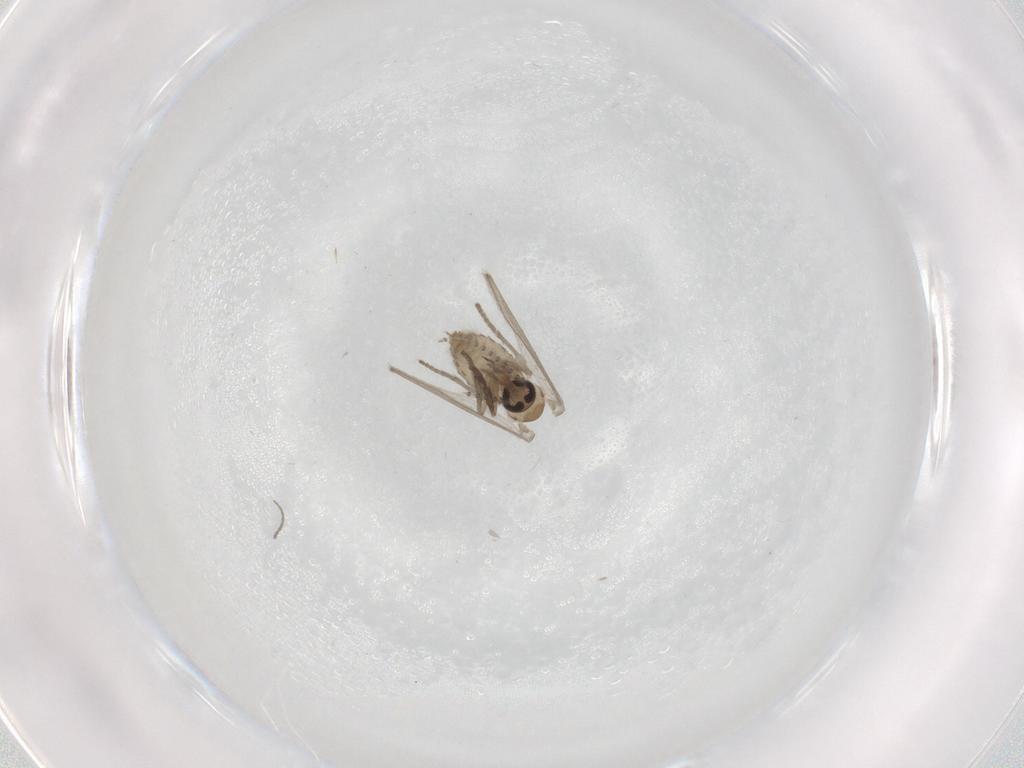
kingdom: Animalia
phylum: Arthropoda
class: Insecta
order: Diptera
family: Psychodidae
